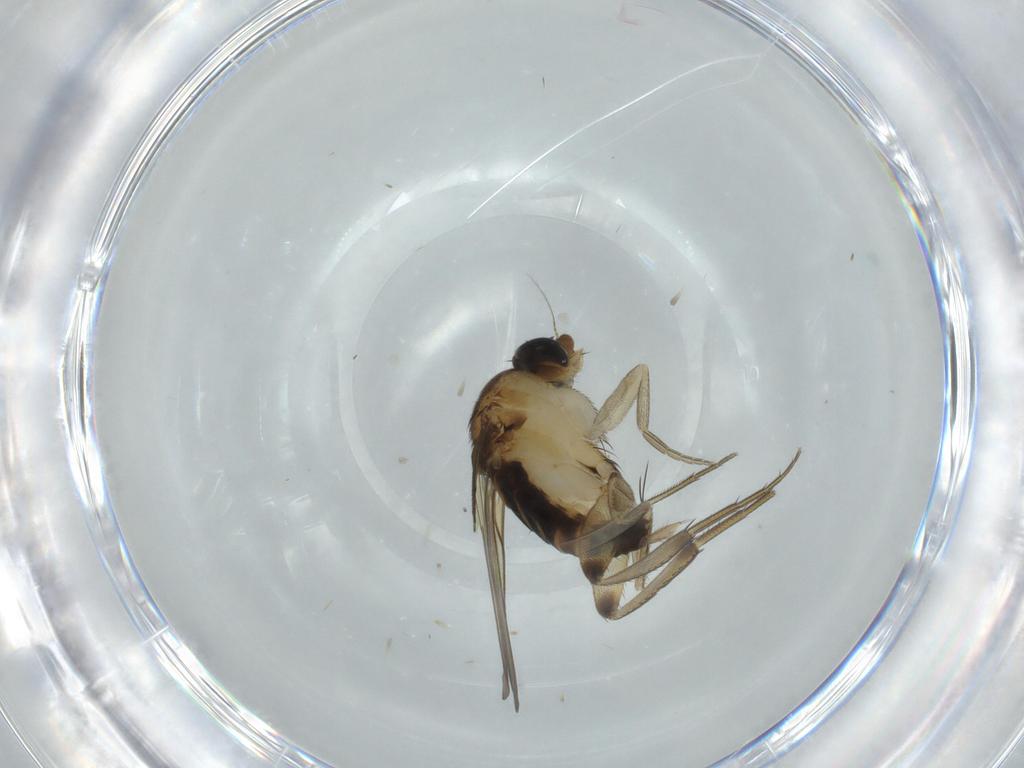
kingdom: Animalia
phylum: Arthropoda
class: Insecta
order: Diptera
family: Phoridae
